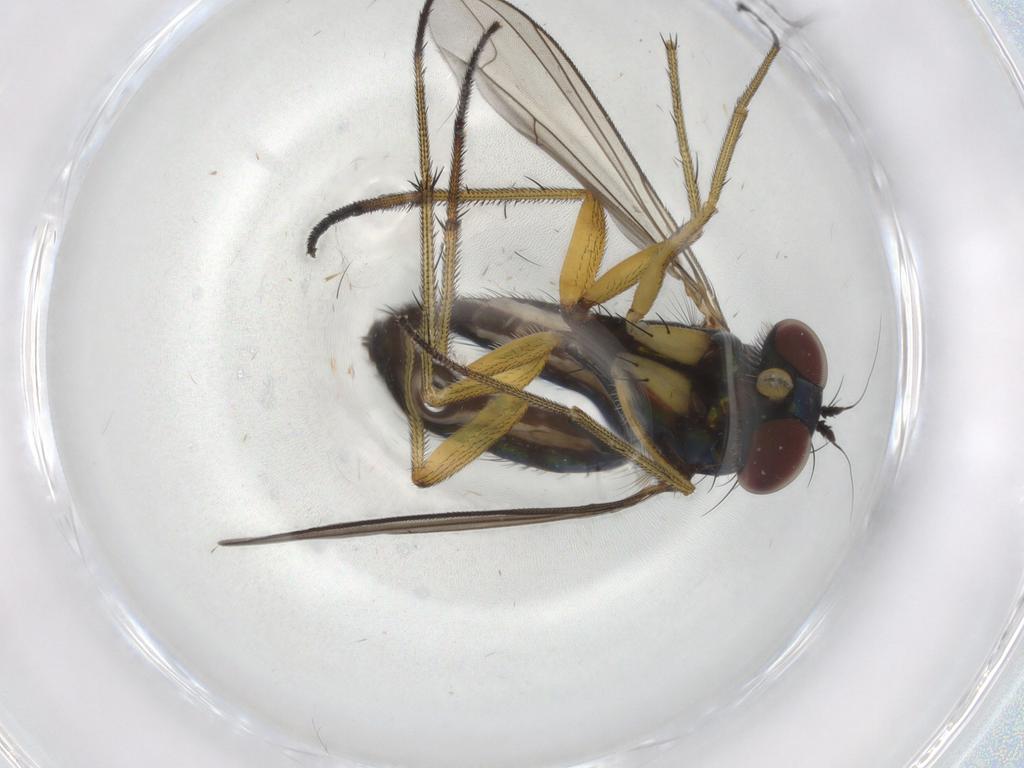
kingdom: Animalia
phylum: Arthropoda
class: Insecta
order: Diptera
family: Dolichopodidae
